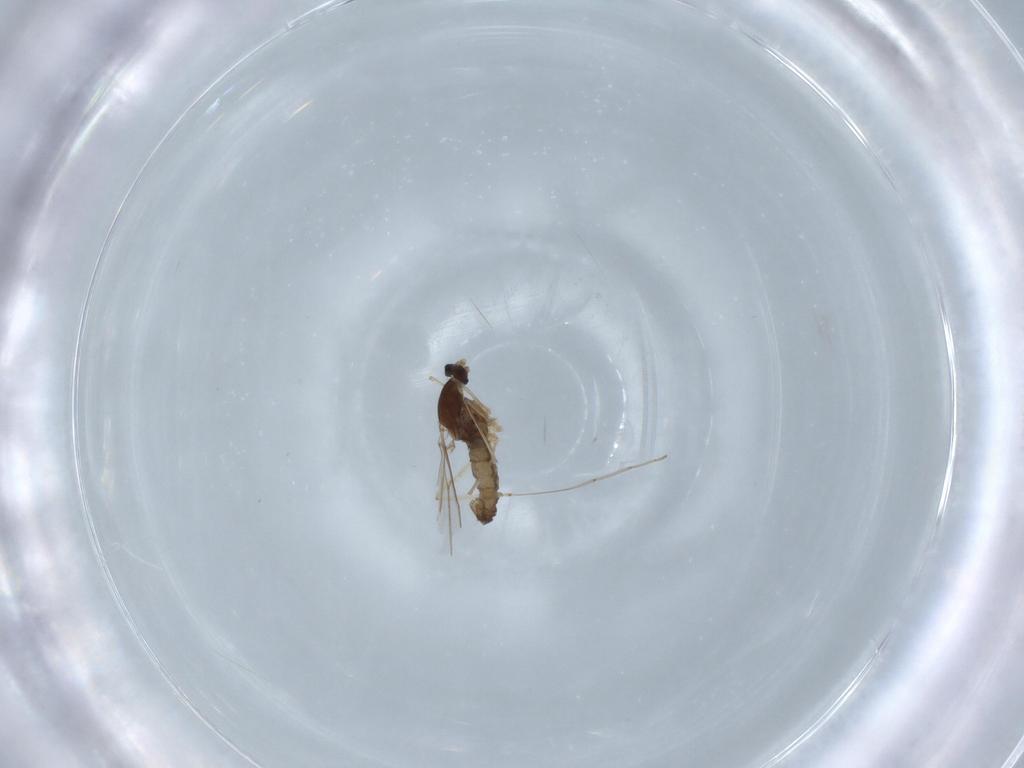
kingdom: Animalia
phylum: Arthropoda
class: Insecta
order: Diptera
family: Cecidomyiidae
